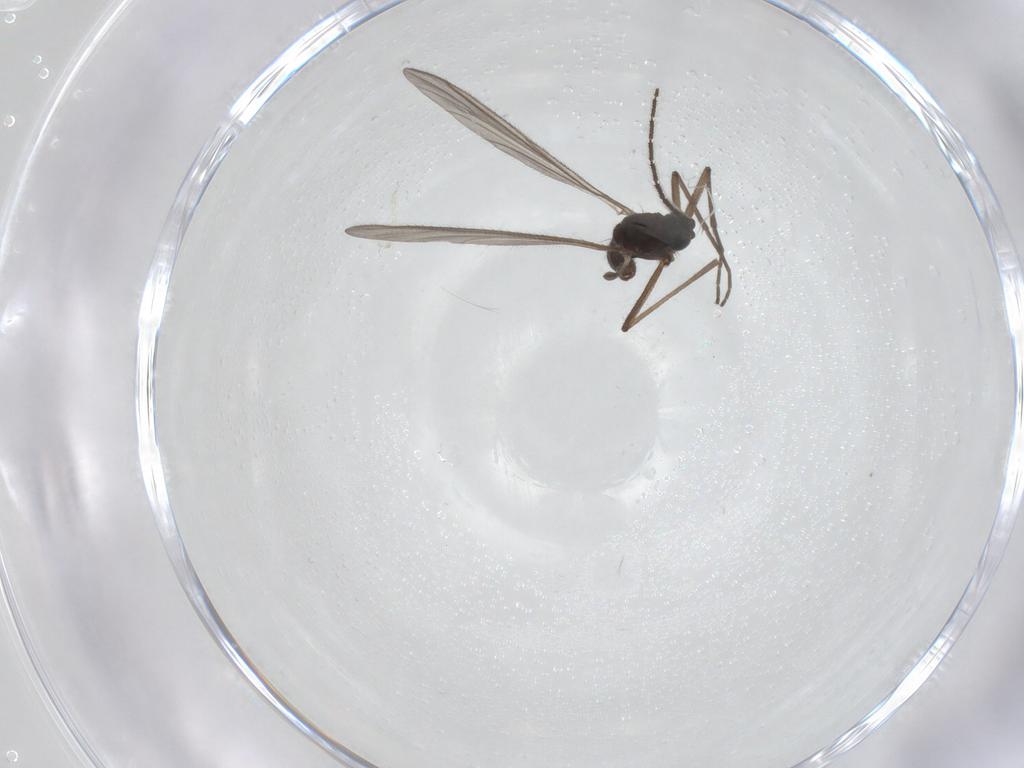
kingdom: Animalia
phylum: Arthropoda
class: Insecta
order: Diptera
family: Sciaridae
